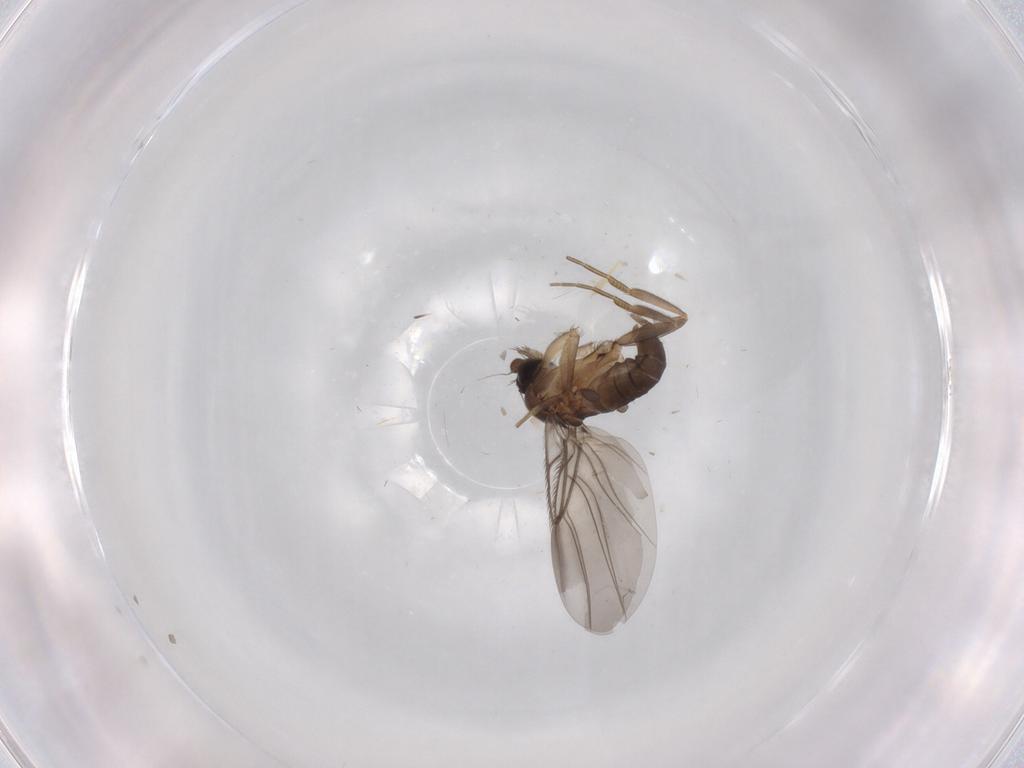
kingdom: Animalia
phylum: Arthropoda
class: Insecta
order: Diptera
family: Phoridae
